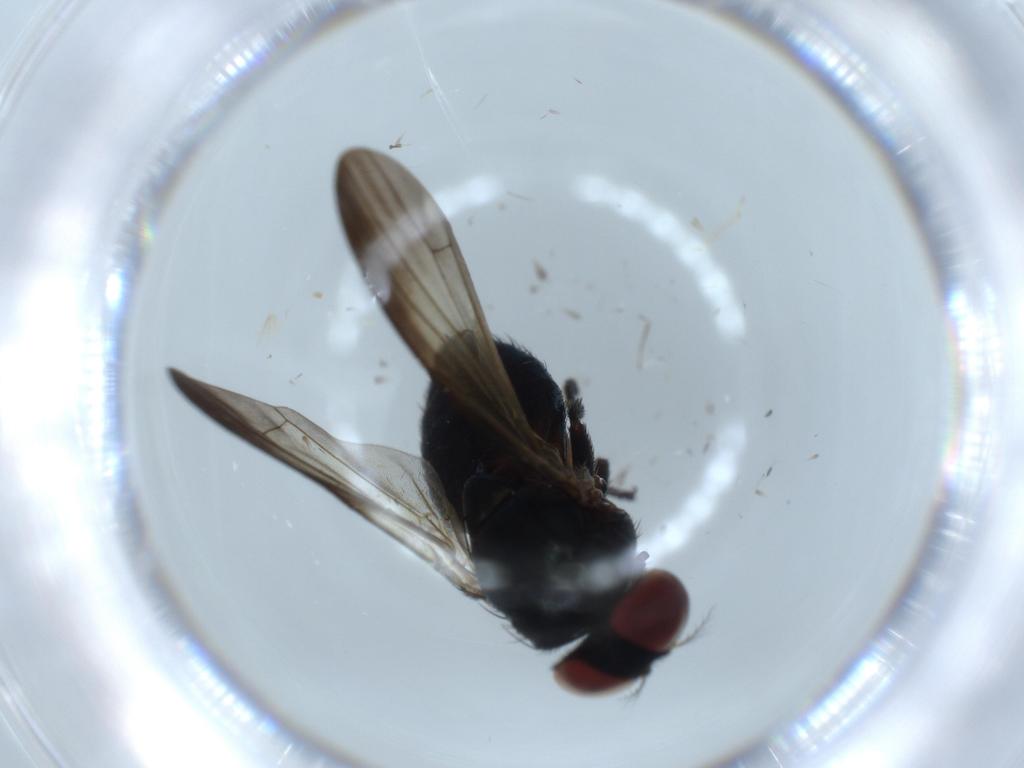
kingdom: Animalia
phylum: Arthropoda
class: Insecta
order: Diptera
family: Lonchaeidae
